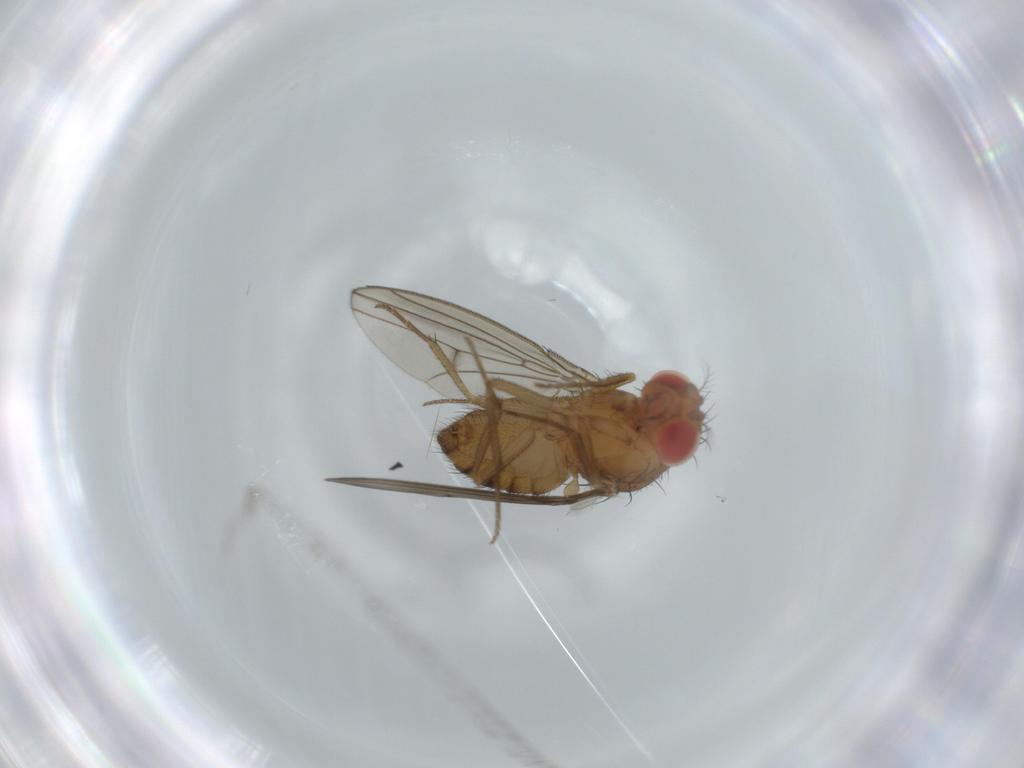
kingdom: Animalia
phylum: Arthropoda
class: Insecta
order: Diptera
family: Drosophilidae
